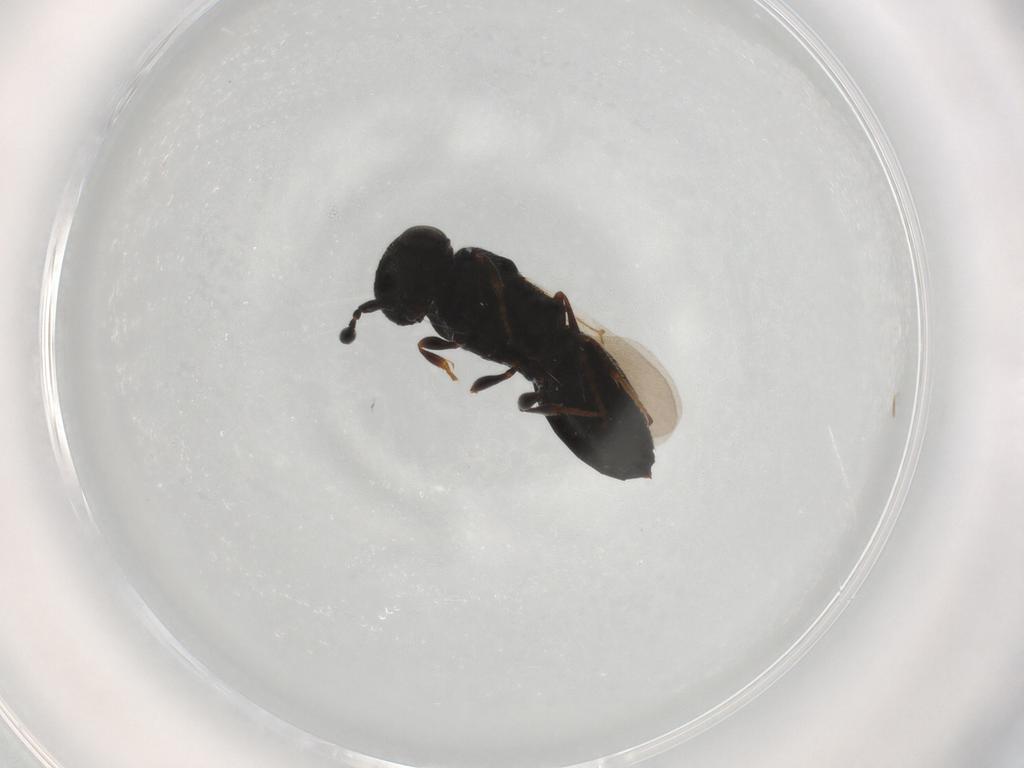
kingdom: Animalia
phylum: Arthropoda
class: Insecta
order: Hymenoptera
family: Scelionidae
